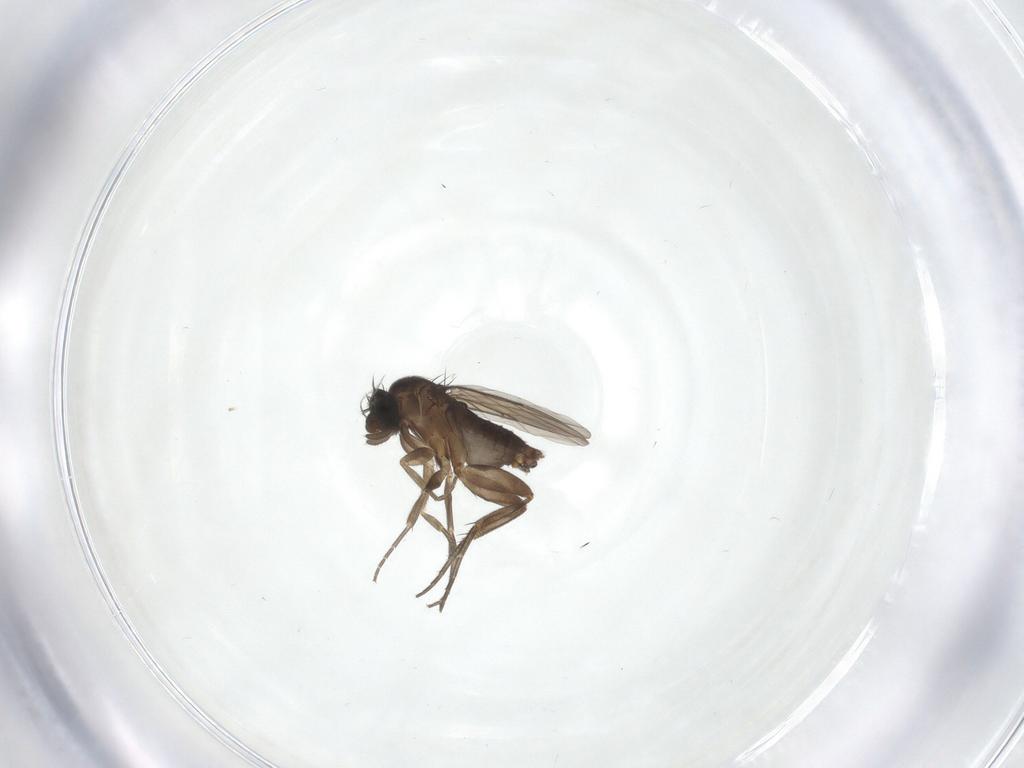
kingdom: Animalia
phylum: Arthropoda
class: Insecta
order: Diptera
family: Phoridae
